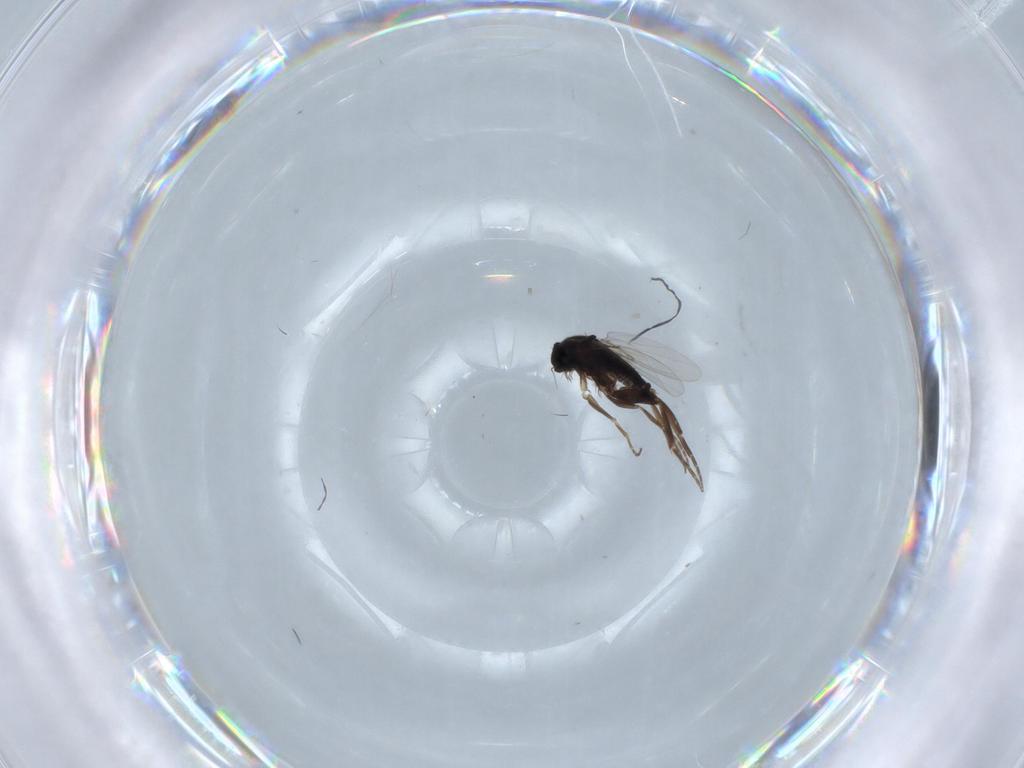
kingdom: Animalia
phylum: Arthropoda
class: Insecta
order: Diptera
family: Phoridae
